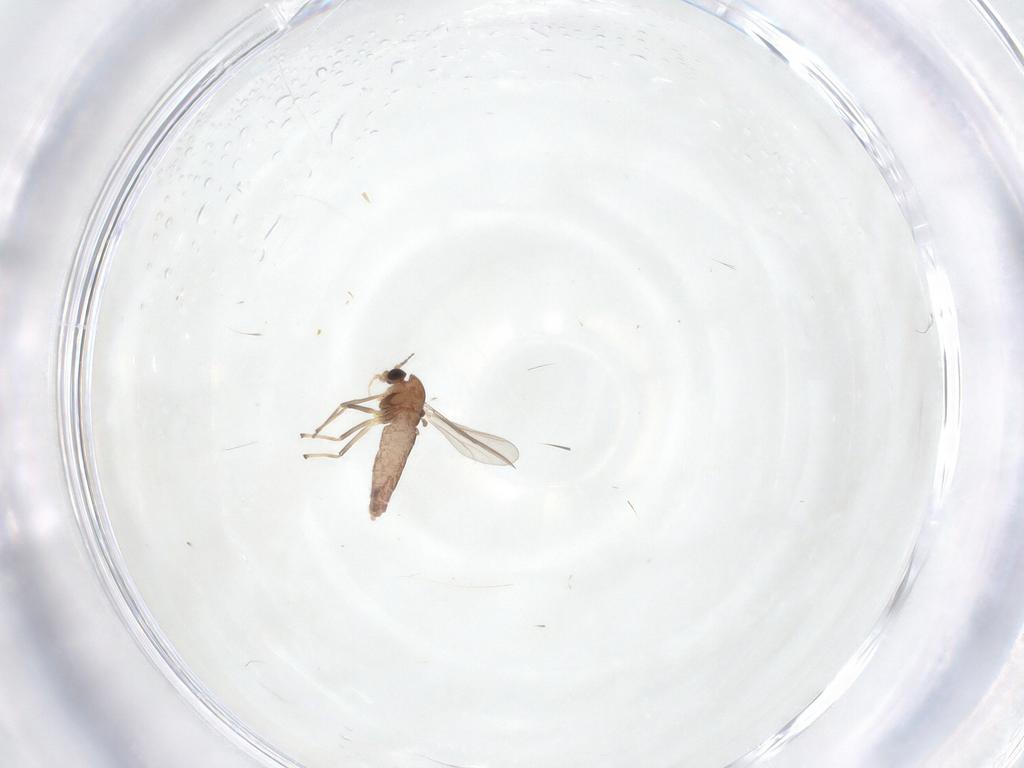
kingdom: Animalia
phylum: Arthropoda
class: Insecta
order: Diptera
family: Chironomidae
